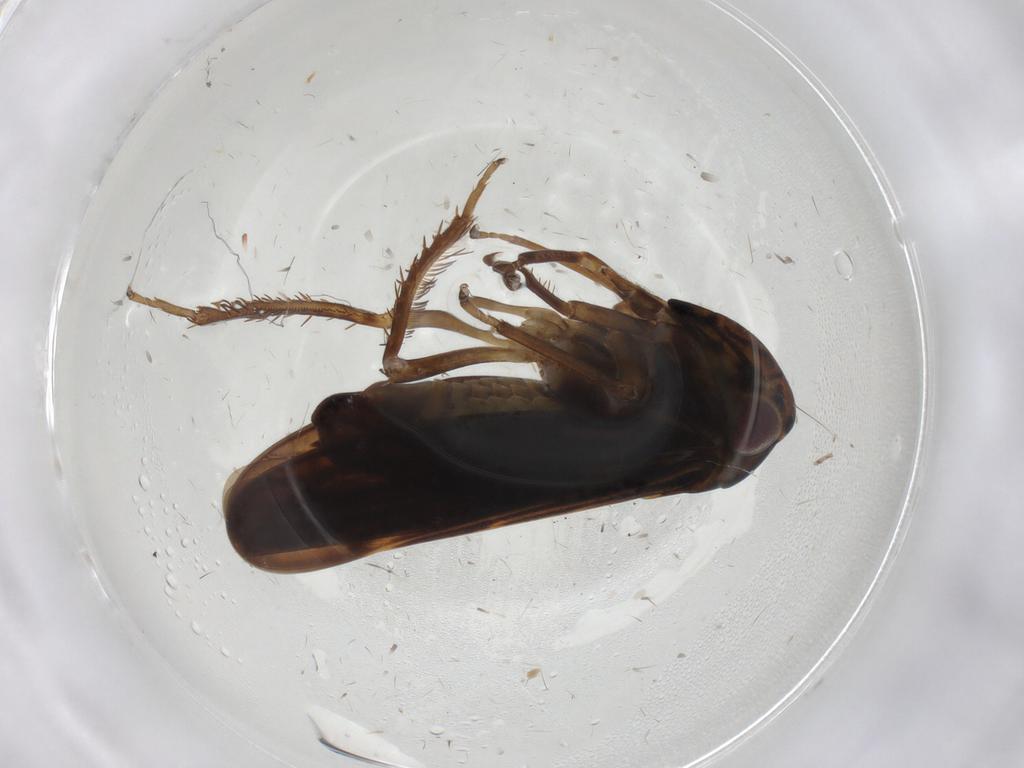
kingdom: Animalia
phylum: Arthropoda
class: Insecta
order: Hemiptera
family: Cicadellidae
